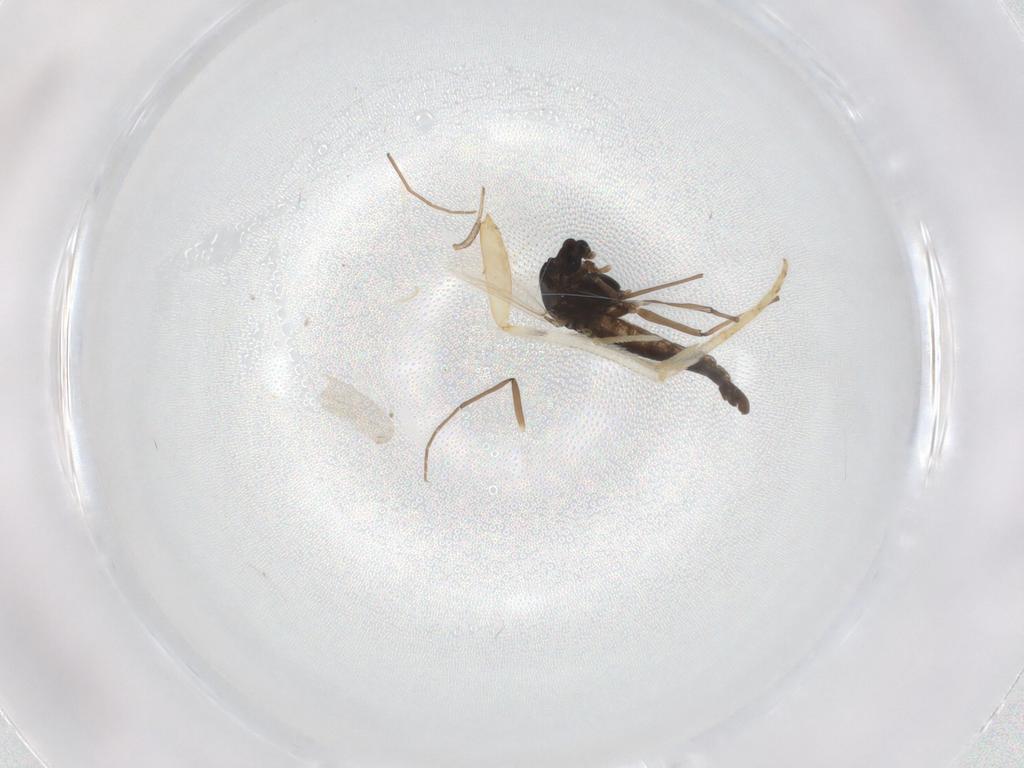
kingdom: Animalia
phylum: Arthropoda
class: Insecta
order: Diptera
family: Chironomidae
